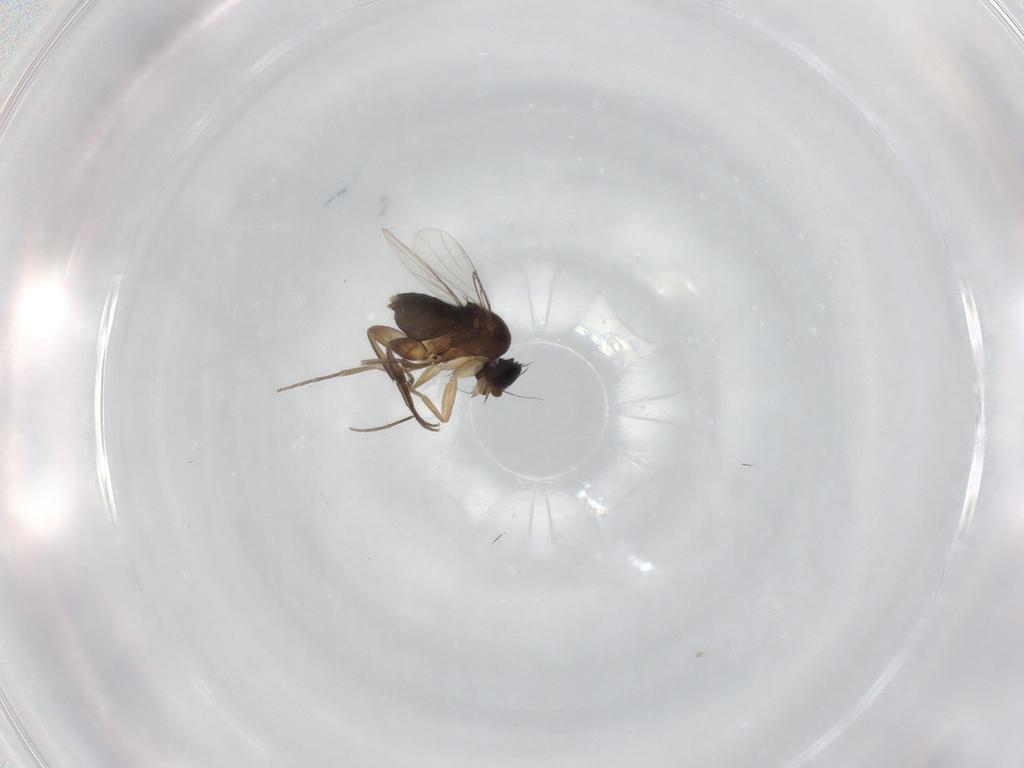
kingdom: Animalia
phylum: Arthropoda
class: Insecta
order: Diptera
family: Phoridae
